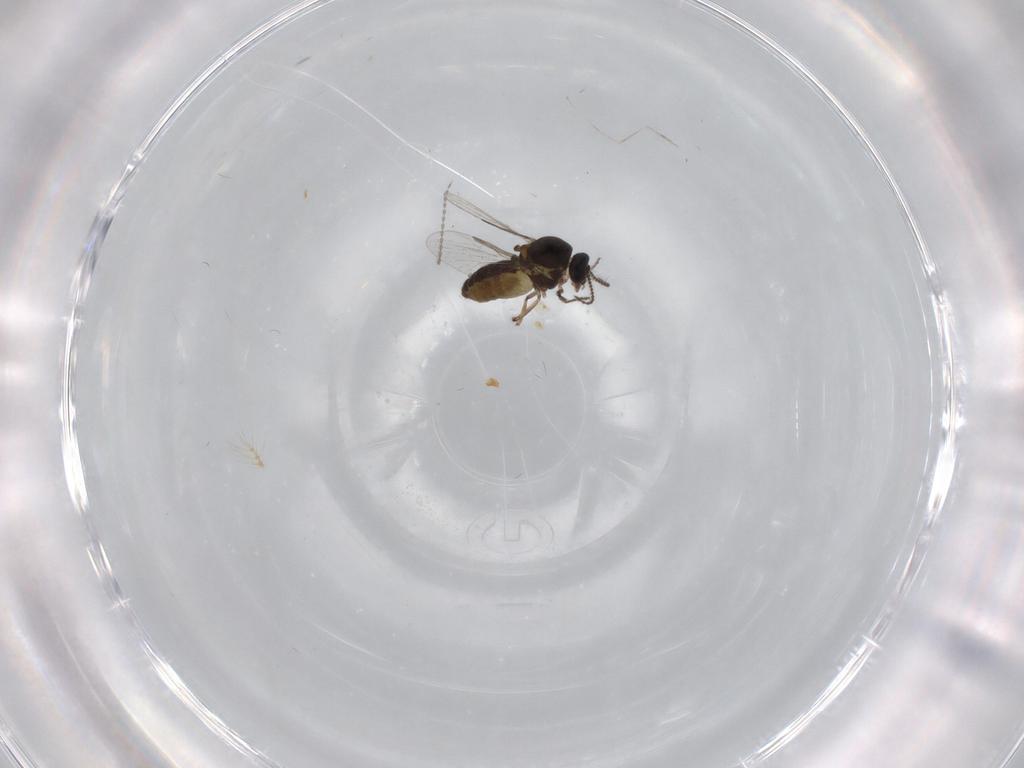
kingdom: Animalia
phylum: Arthropoda
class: Insecta
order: Diptera
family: Ceratopogonidae
